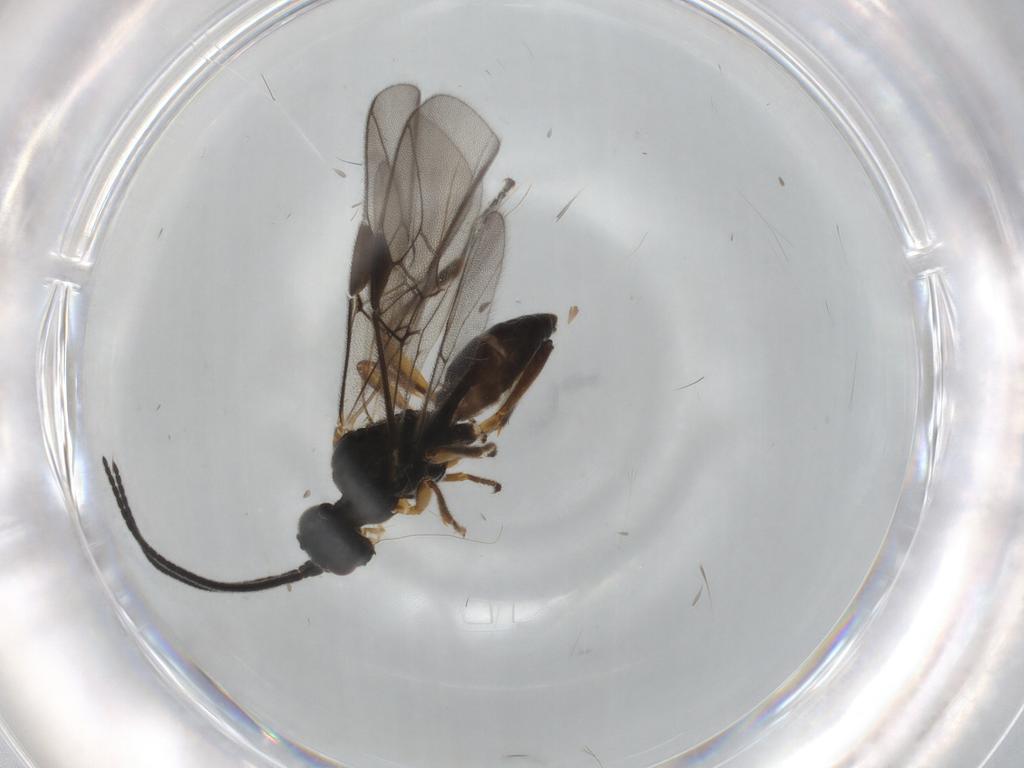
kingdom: Animalia
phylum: Arthropoda
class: Insecta
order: Hymenoptera
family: Braconidae
